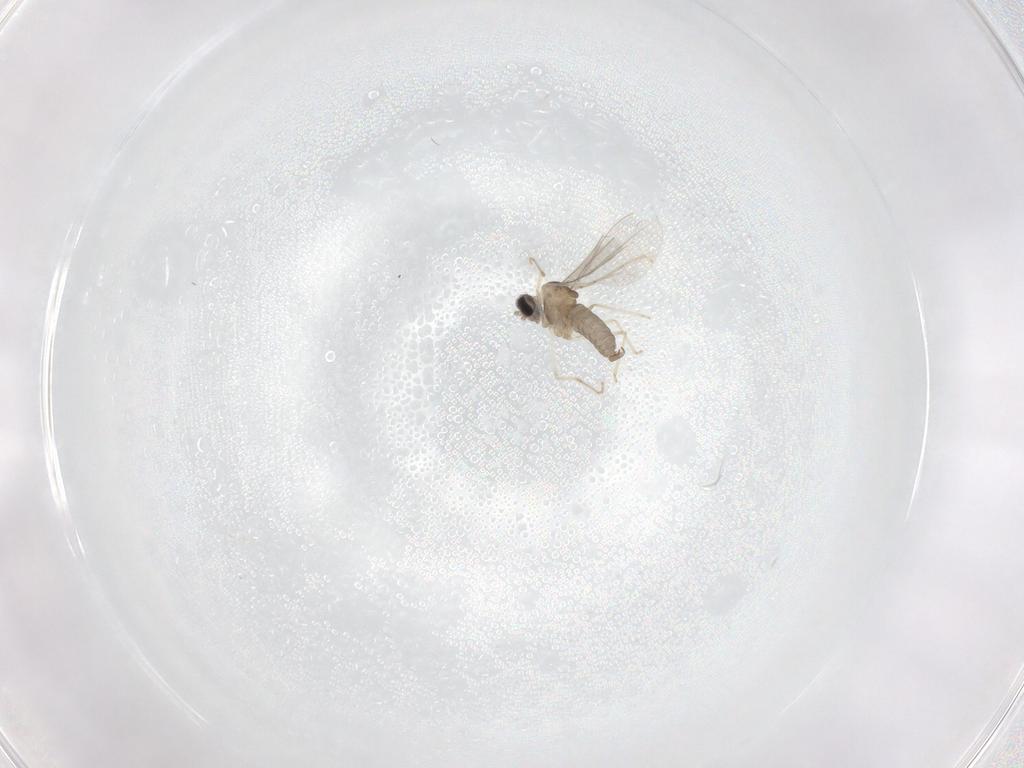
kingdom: Animalia
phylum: Arthropoda
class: Insecta
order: Diptera
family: Cecidomyiidae
